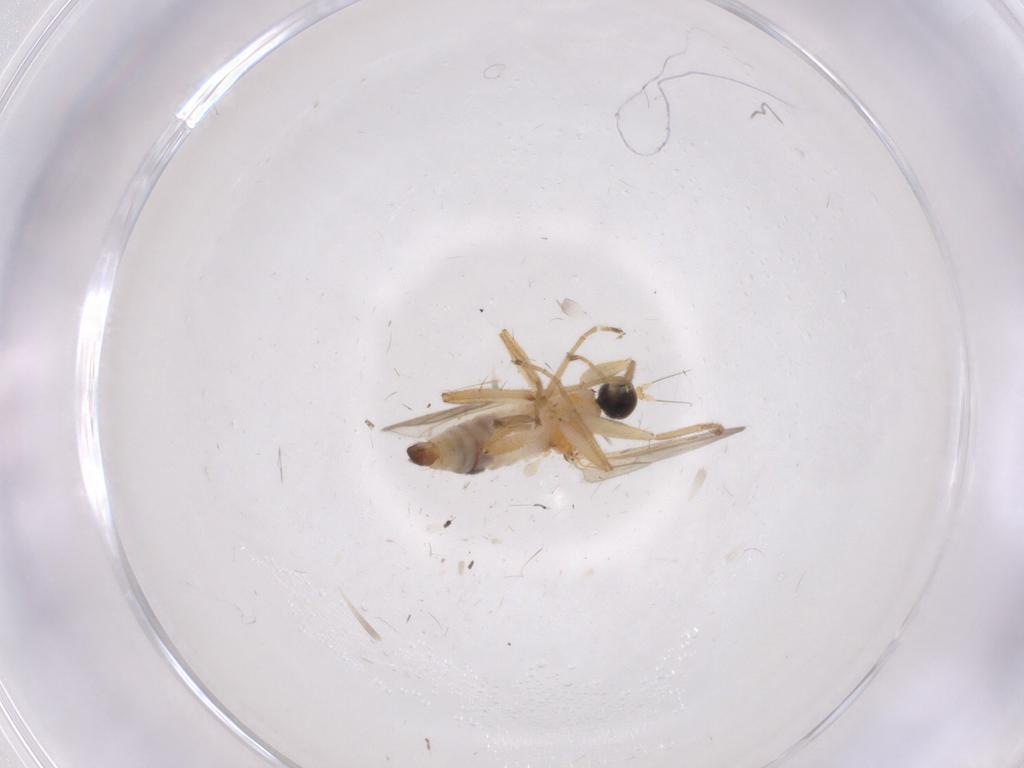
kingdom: Animalia
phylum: Arthropoda
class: Insecta
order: Diptera
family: Hybotidae
